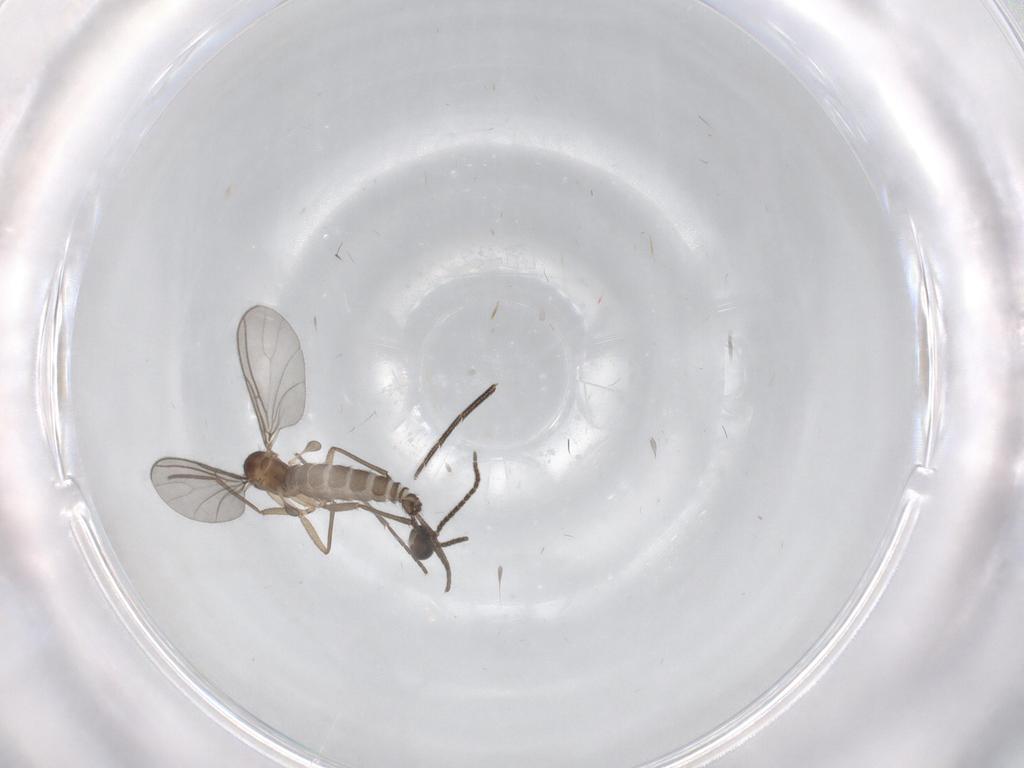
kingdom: Animalia
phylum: Arthropoda
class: Insecta
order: Diptera
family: Sciaridae
